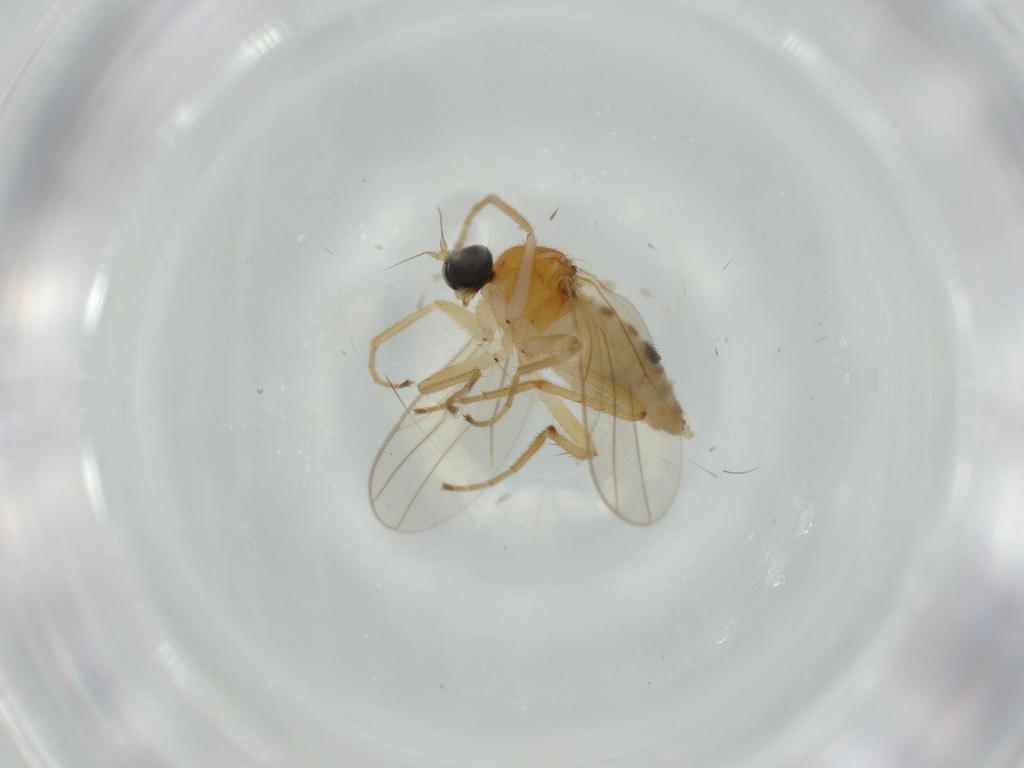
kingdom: Animalia
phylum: Arthropoda
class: Insecta
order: Diptera
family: Hybotidae
